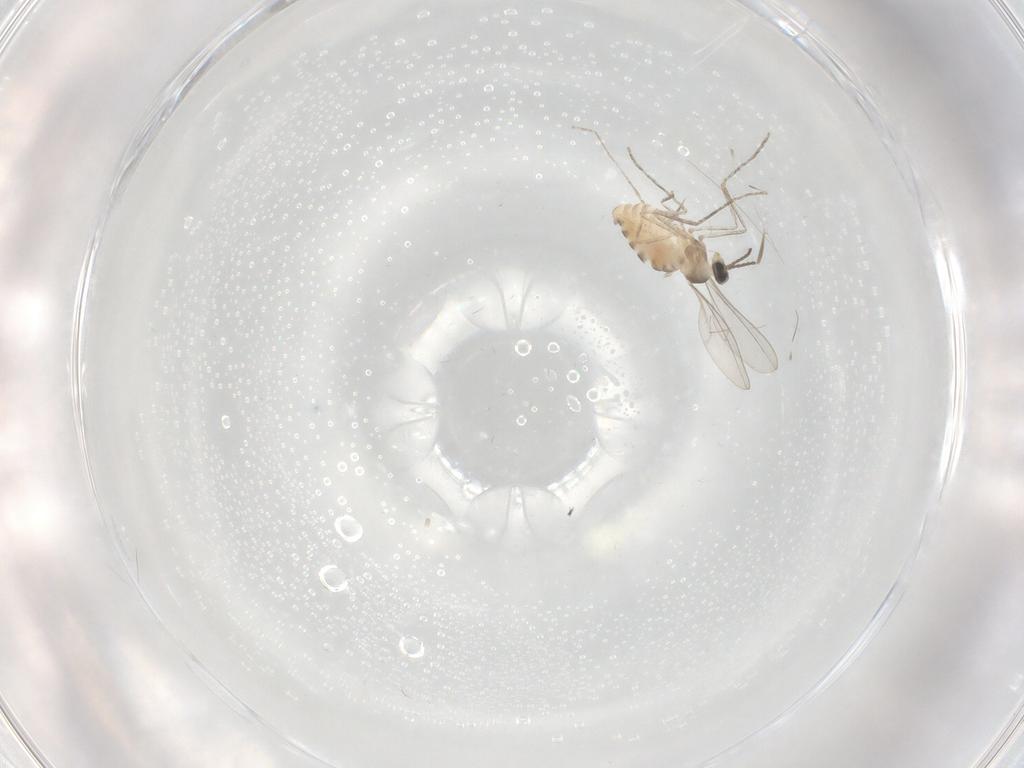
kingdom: Animalia
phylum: Arthropoda
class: Insecta
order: Diptera
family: Cecidomyiidae
